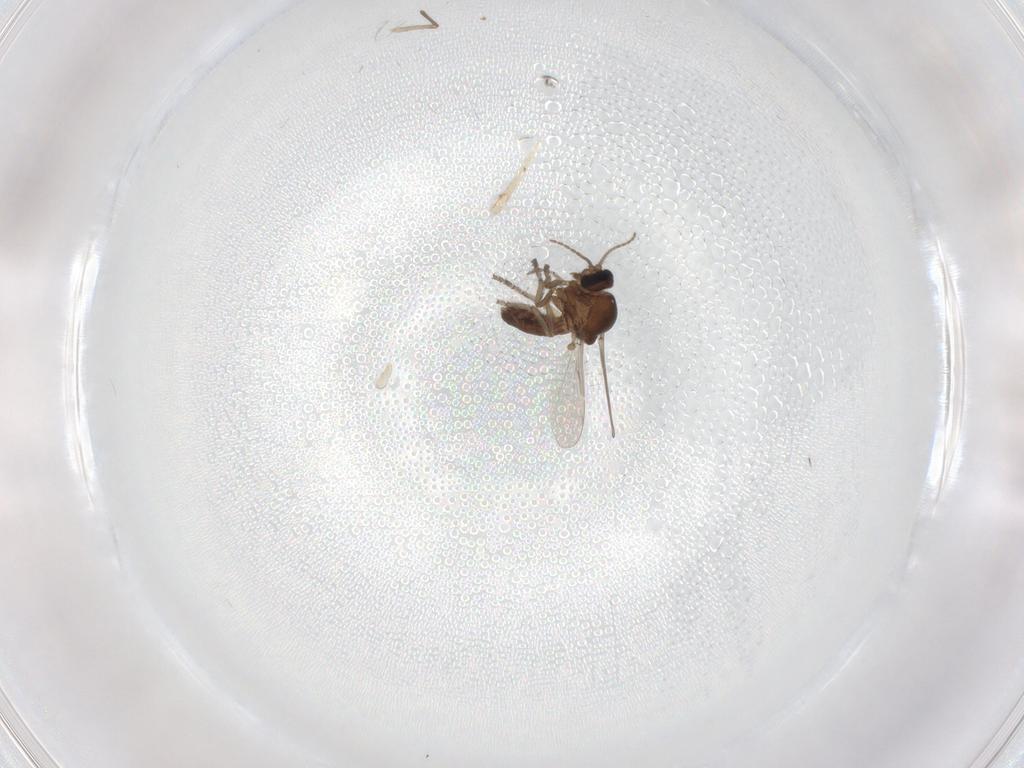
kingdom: Animalia
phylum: Arthropoda
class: Insecta
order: Diptera
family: Ceratopogonidae
